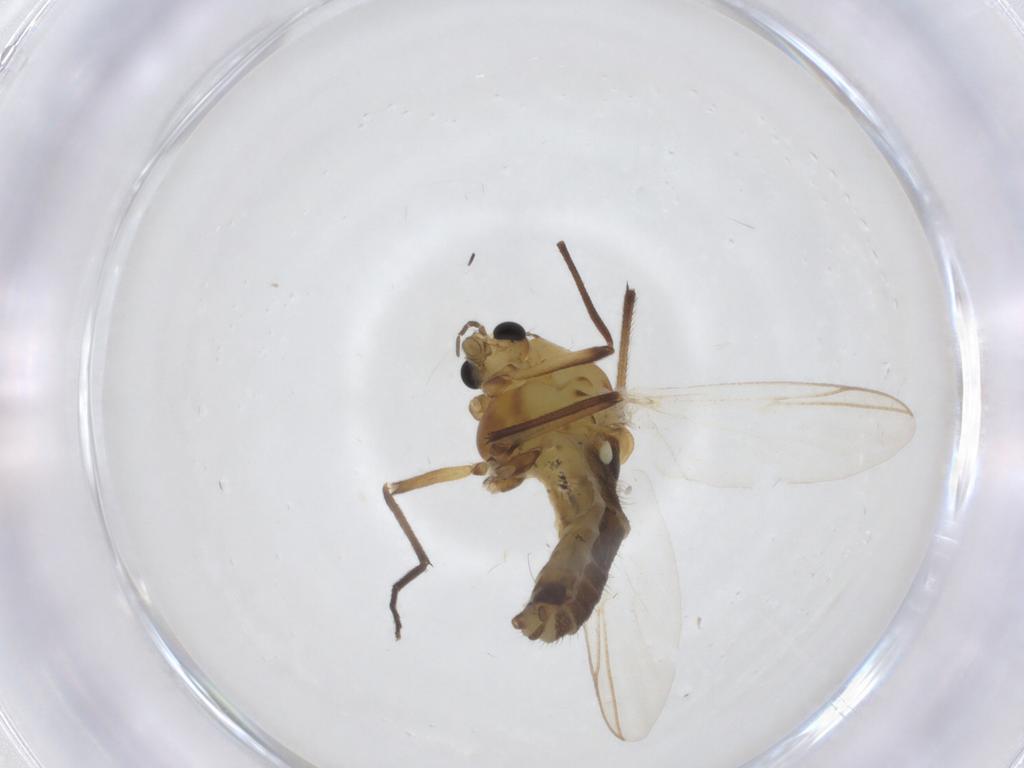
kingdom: Animalia
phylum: Arthropoda
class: Insecta
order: Diptera
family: Chironomidae
